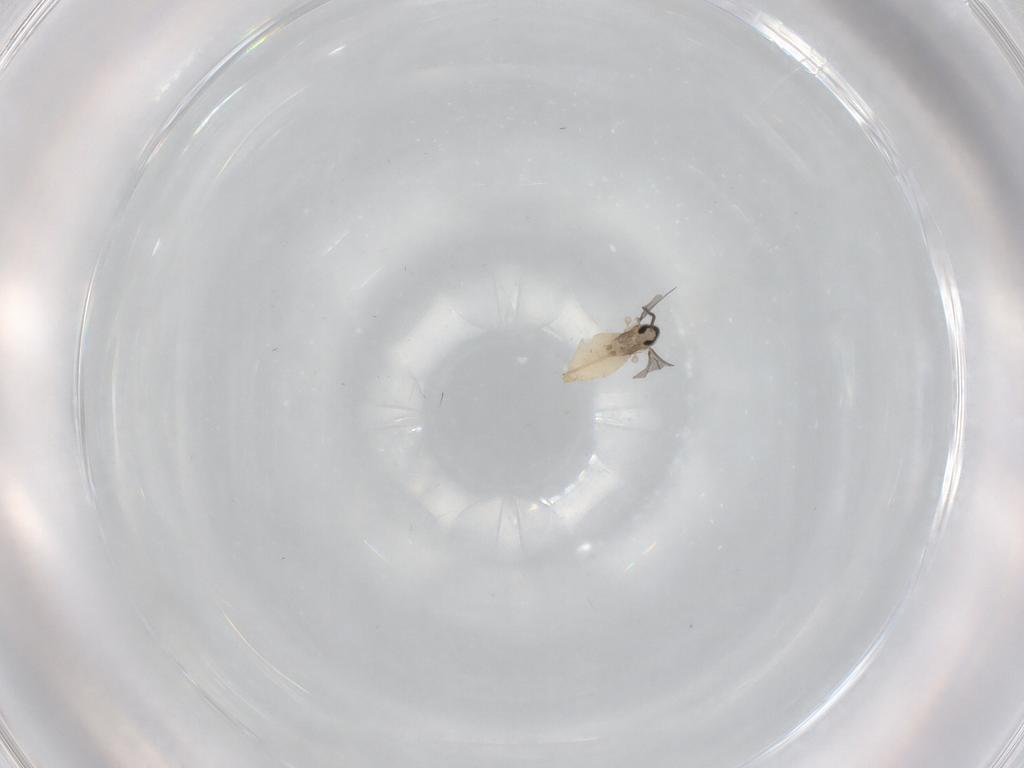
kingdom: Animalia
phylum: Arthropoda
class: Insecta
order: Diptera
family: Cecidomyiidae
